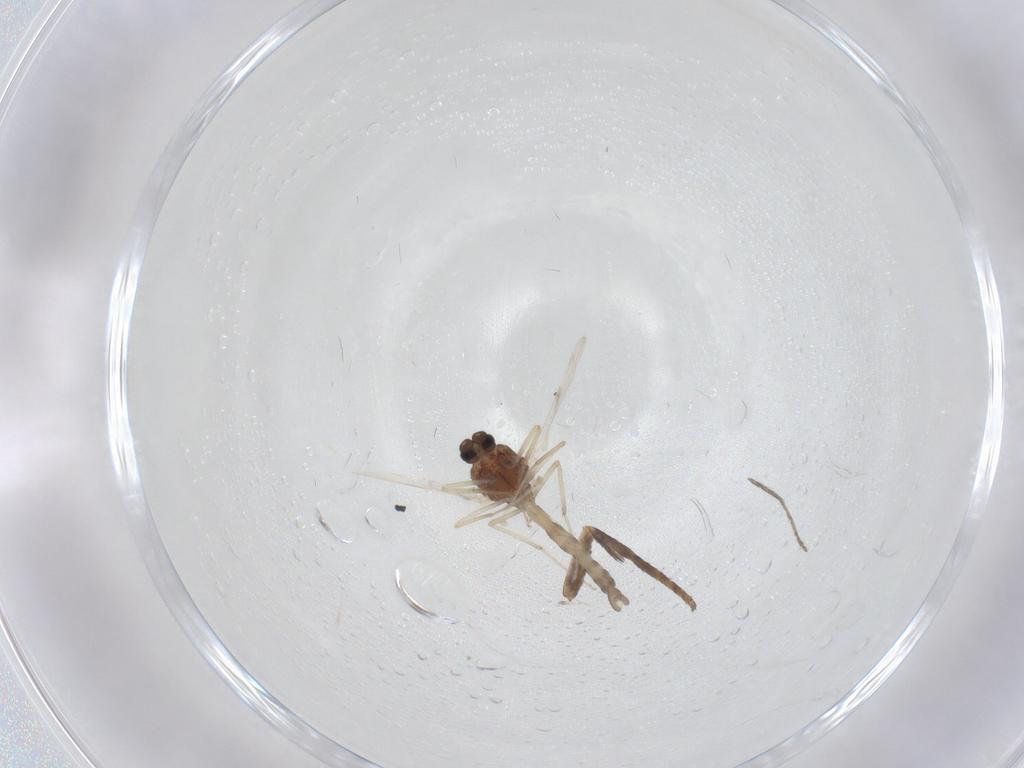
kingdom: Animalia
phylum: Arthropoda
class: Insecta
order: Diptera
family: Ceratopogonidae
